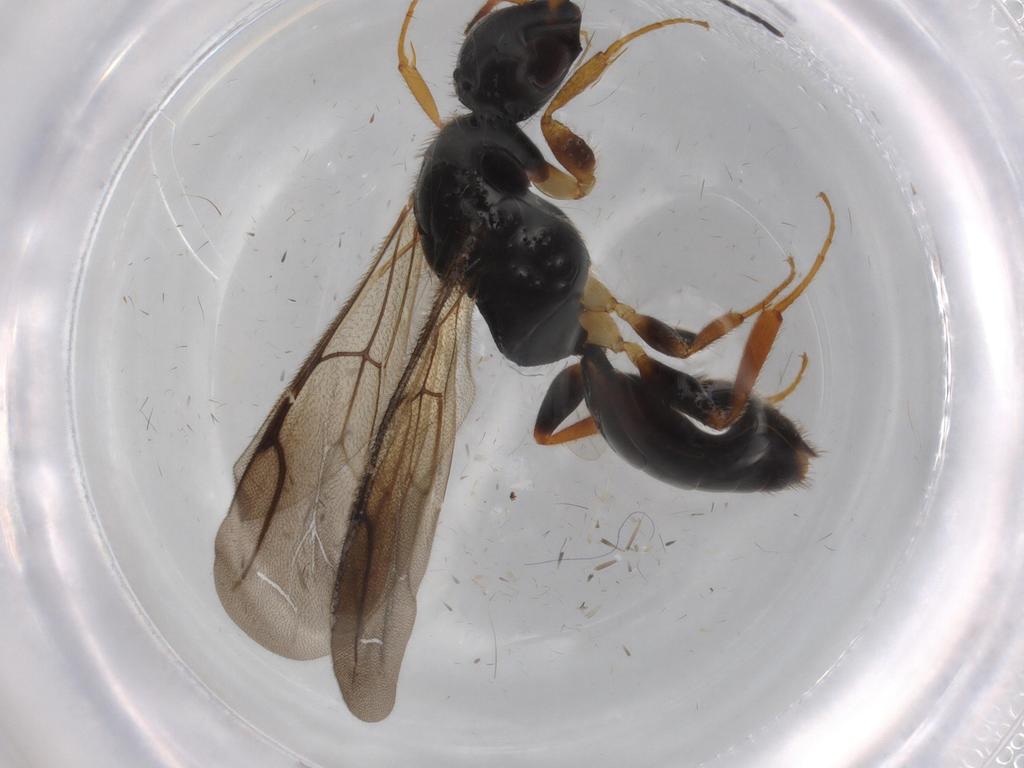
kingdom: Animalia
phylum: Arthropoda
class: Insecta
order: Hymenoptera
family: Bethylidae
